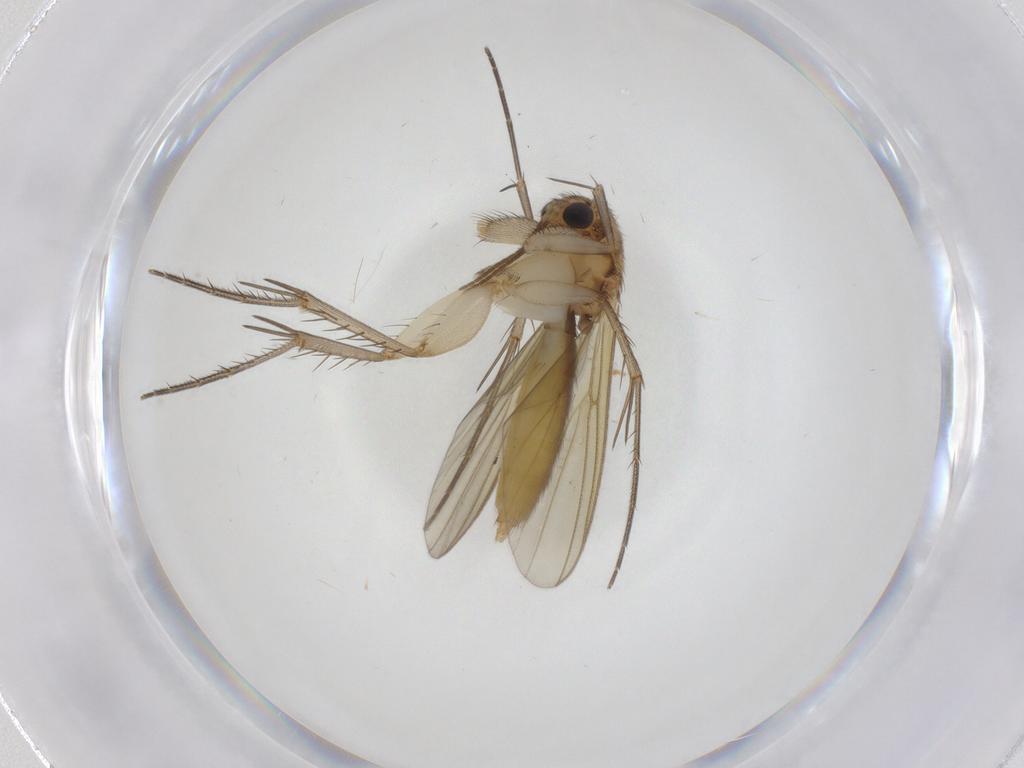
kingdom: Animalia
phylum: Arthropoda
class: Insecta
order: Diptera
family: Mycetophilidae
